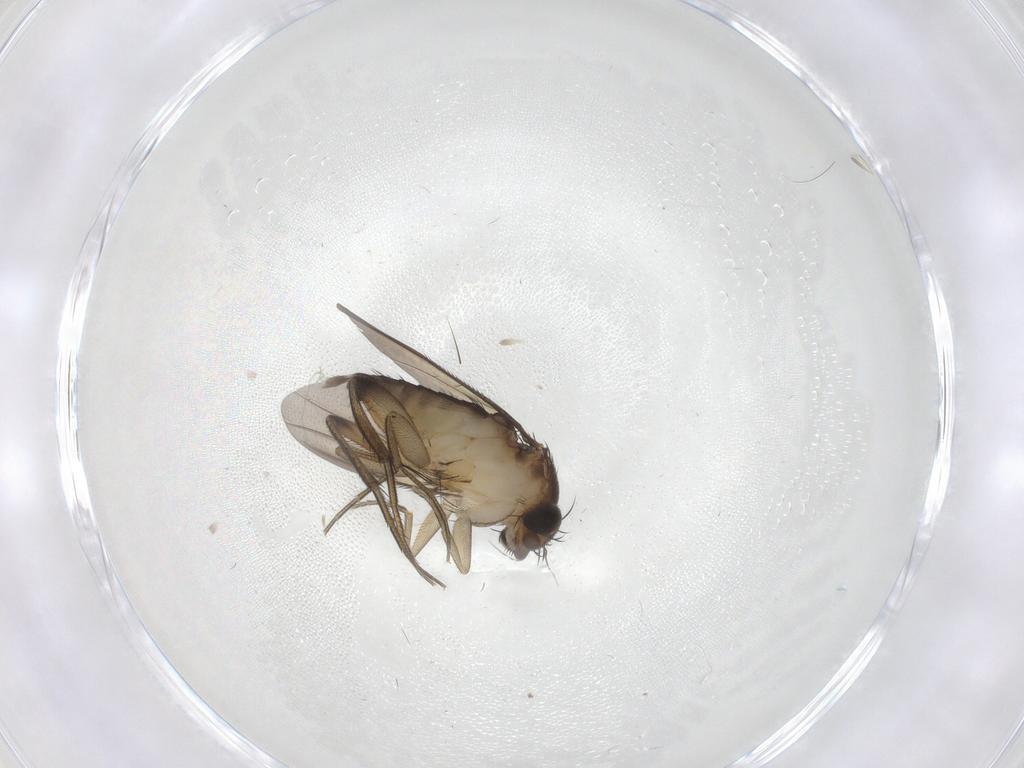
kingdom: Animalia
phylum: Arthropoda
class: Insecta
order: Diptera
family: Phoridae
